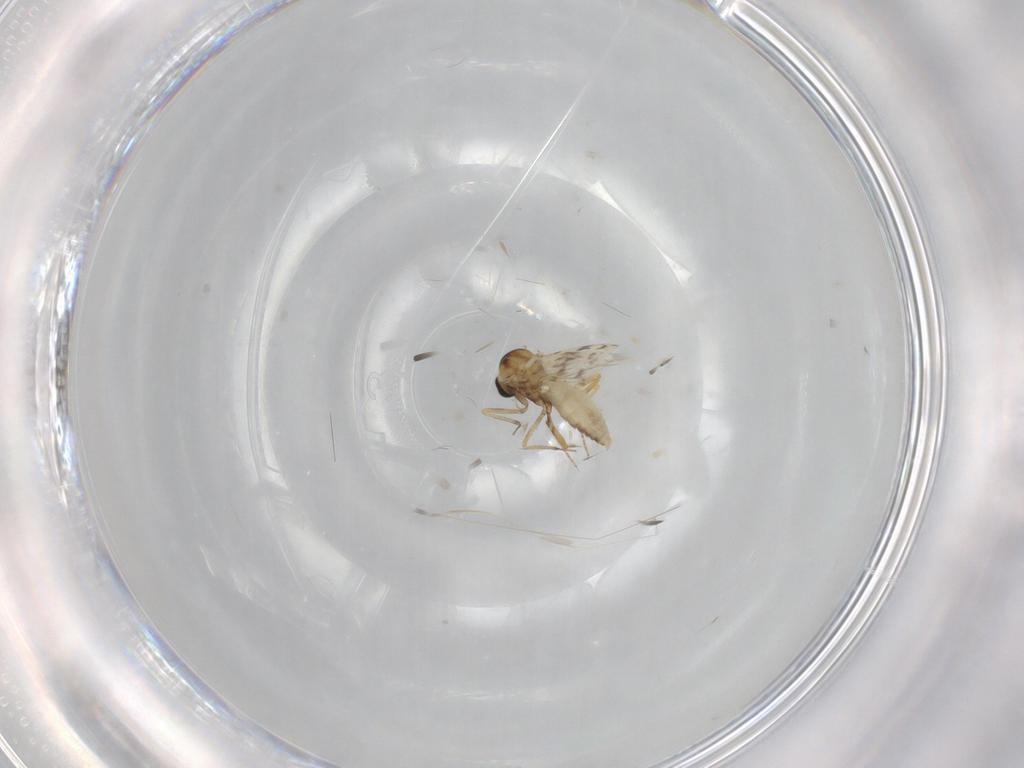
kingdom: Animalia
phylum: Arthropoda
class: Insecta
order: Diptera
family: Ceratopogonidae
